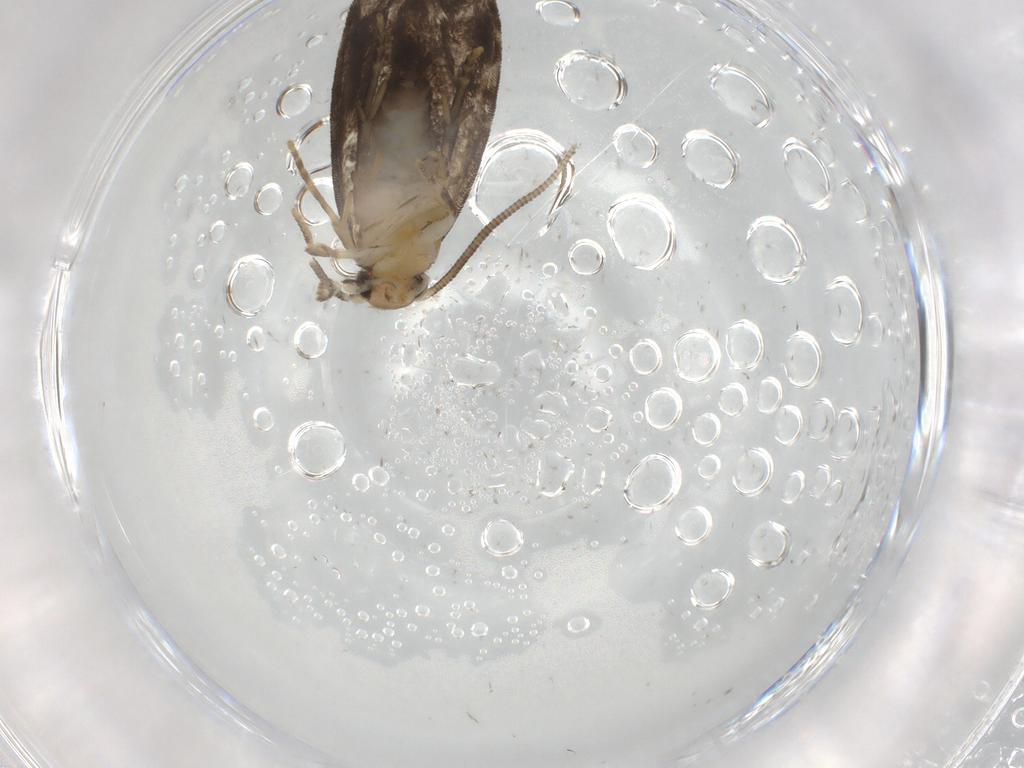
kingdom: Animalia
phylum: Arthropoda
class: Insecta
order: Lepidoptera
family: Dryadaulidae
